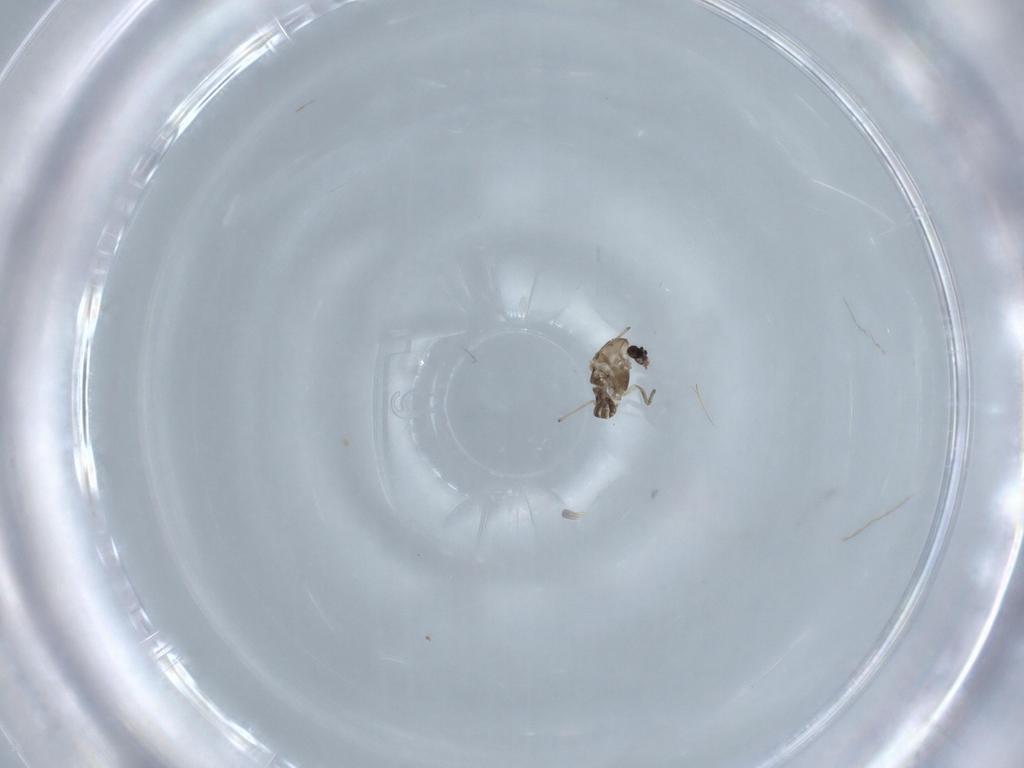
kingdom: Animalia
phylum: Arthropoda
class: Insecta
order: Diptera
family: Chironomidae
